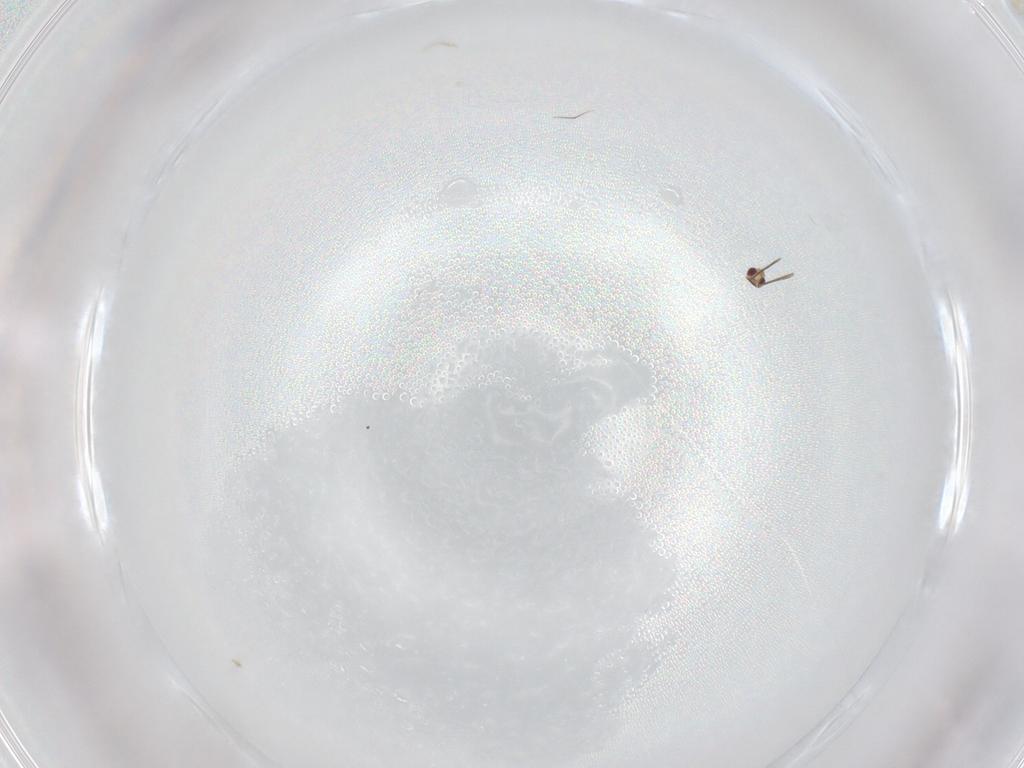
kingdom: Animalia
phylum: Arthropoda
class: Insecta
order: Hymenoptera
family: Mymaridae
